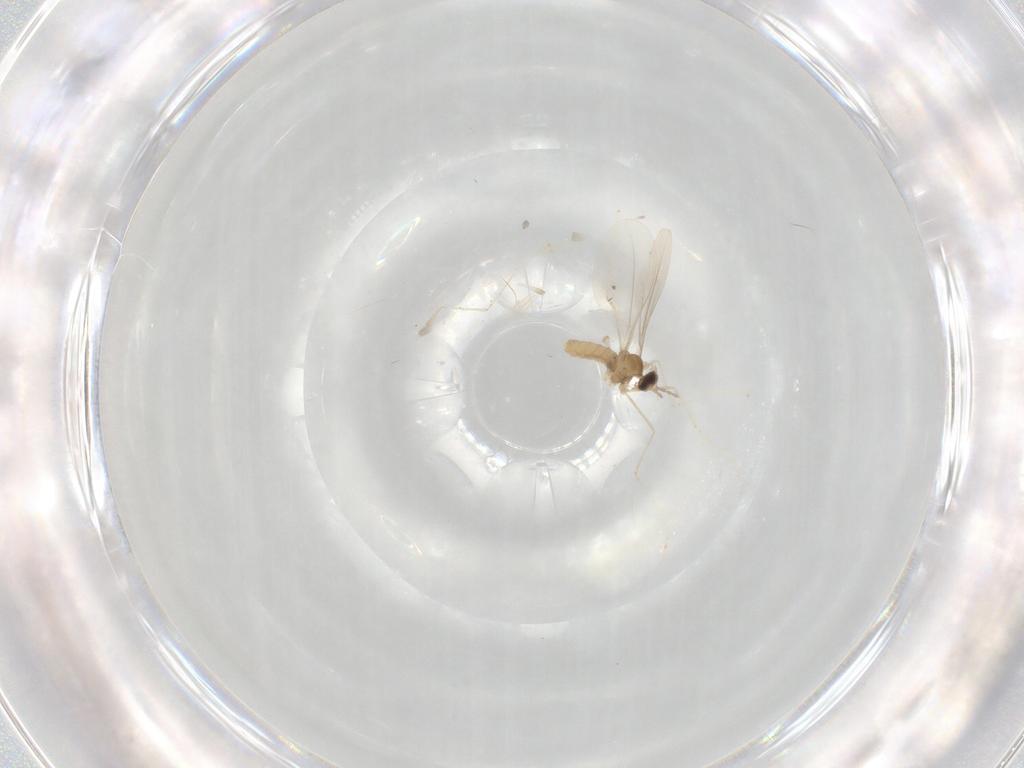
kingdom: Animalia
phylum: Arthropoda
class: Insecta
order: Diptera
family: Cecidomyiidae
